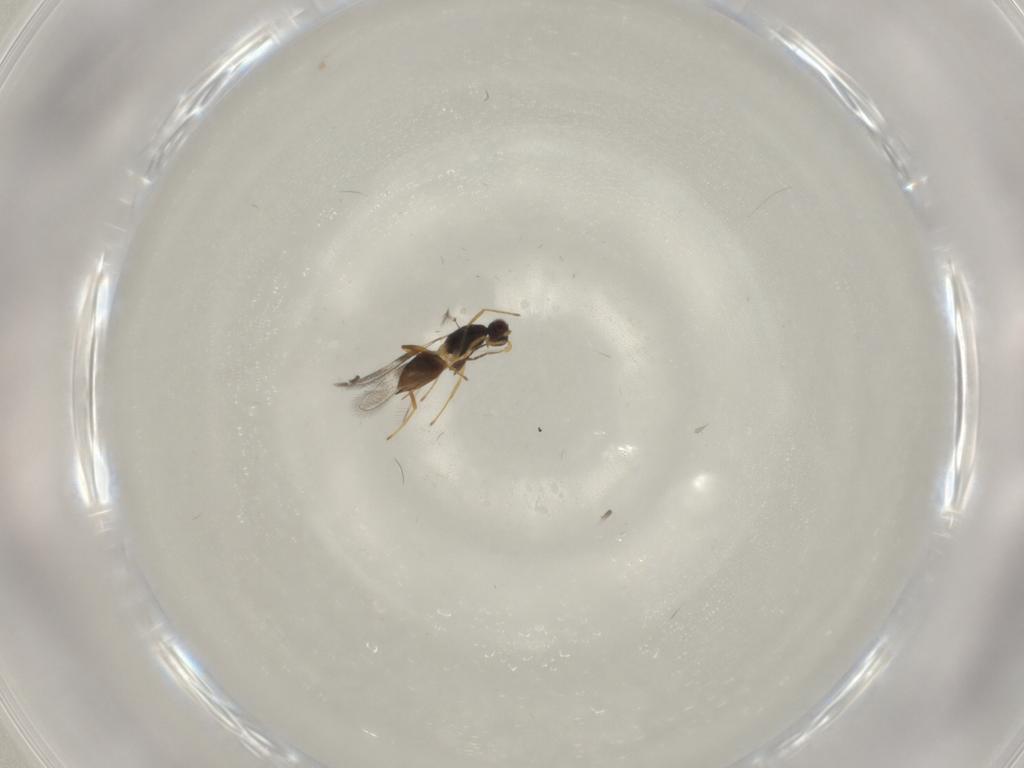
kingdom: Animalia
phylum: Arthropoda
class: Insecta
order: Hymenoptera
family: Mymaridae
